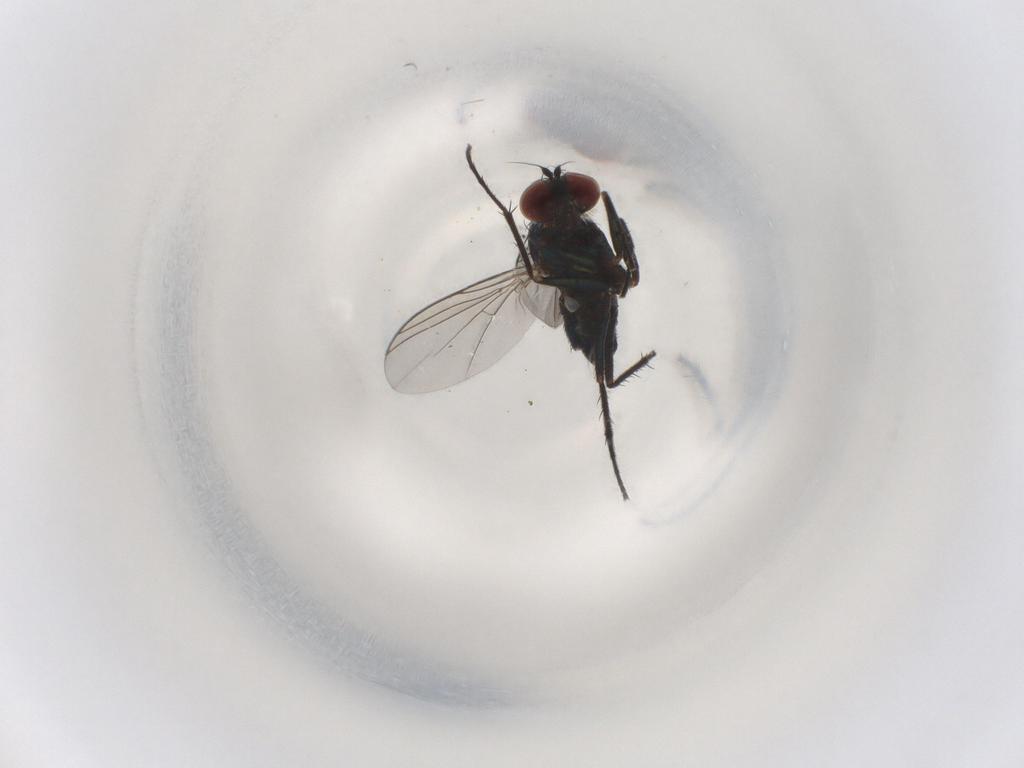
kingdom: Animalia
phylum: Arthropoda
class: Insecta
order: Diptera
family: Dolichopodidae
